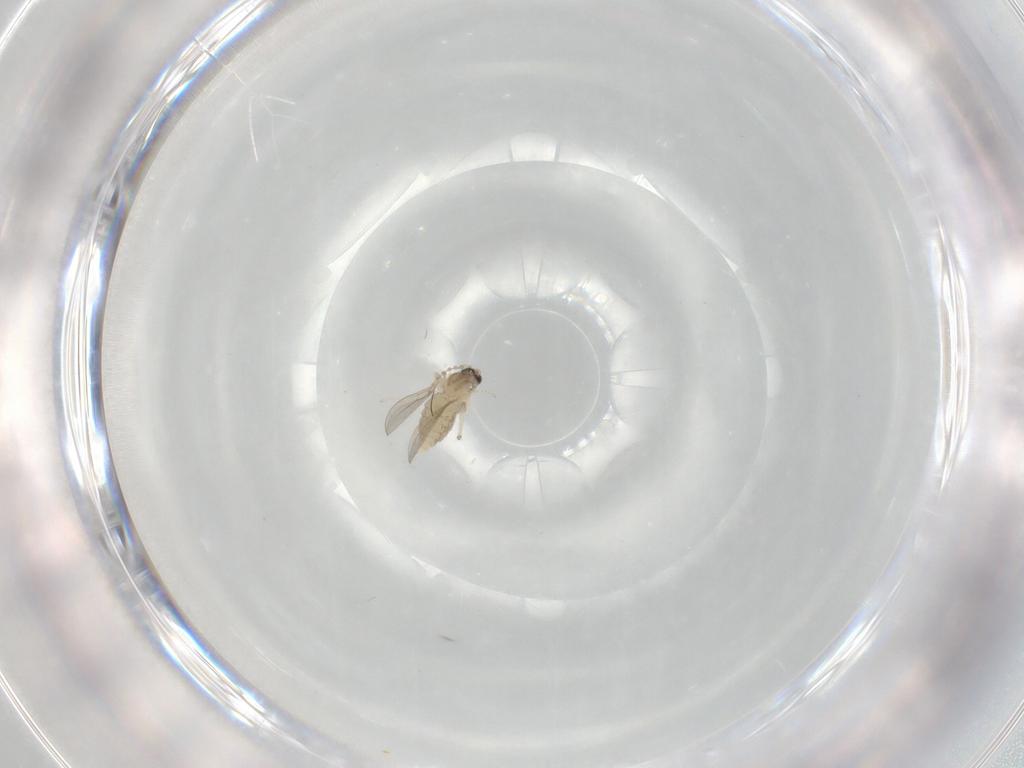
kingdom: Animalia
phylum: Arthropoda
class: Insecta
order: Diptera
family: Cecidomyiidae
